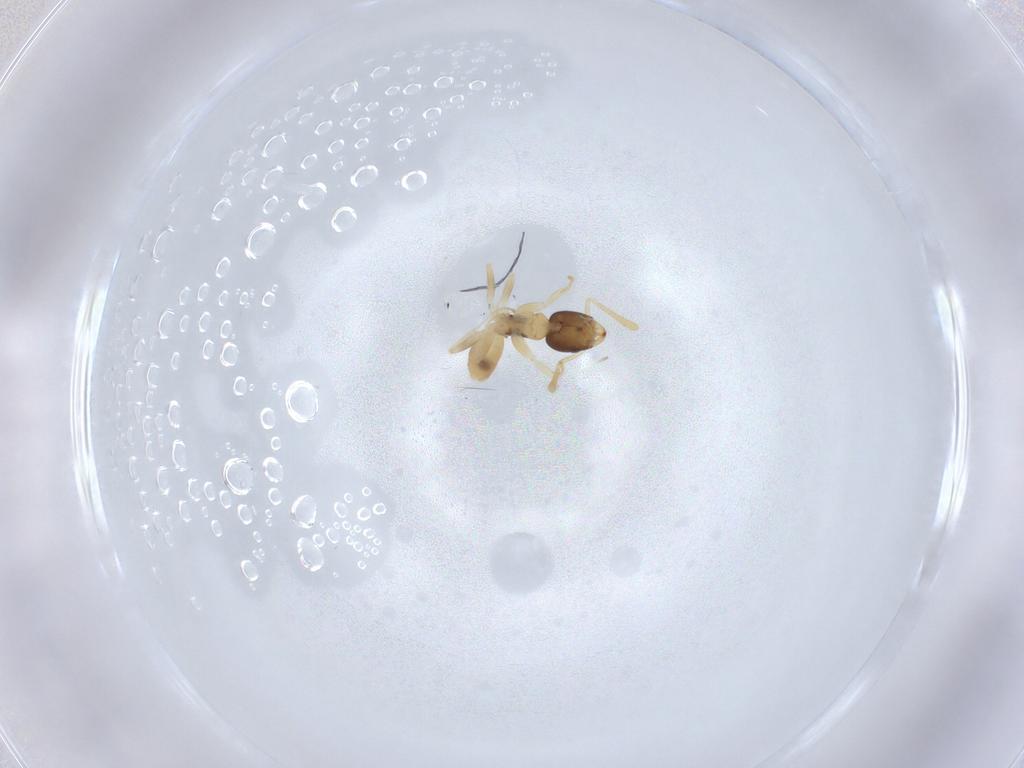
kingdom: Animalia
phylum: Arthropoda
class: Insecta
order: Hymenoptera
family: Formicidae
